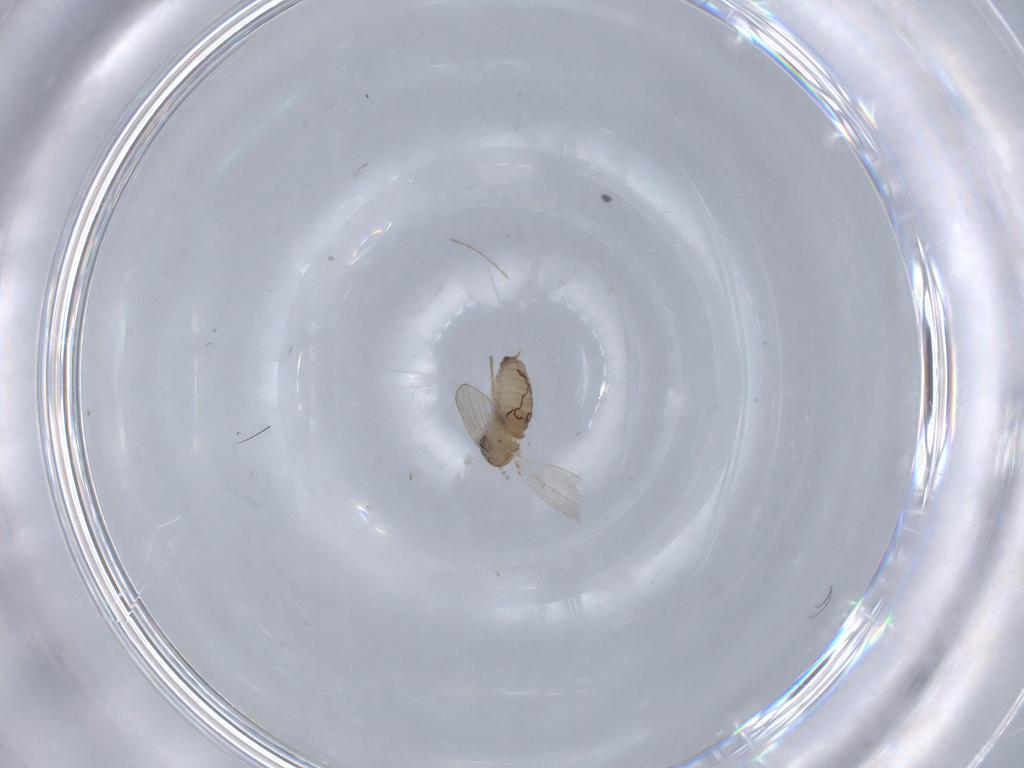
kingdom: Animalia
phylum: Arthropoda
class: Insecta
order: Diptera
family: Psychodidae
